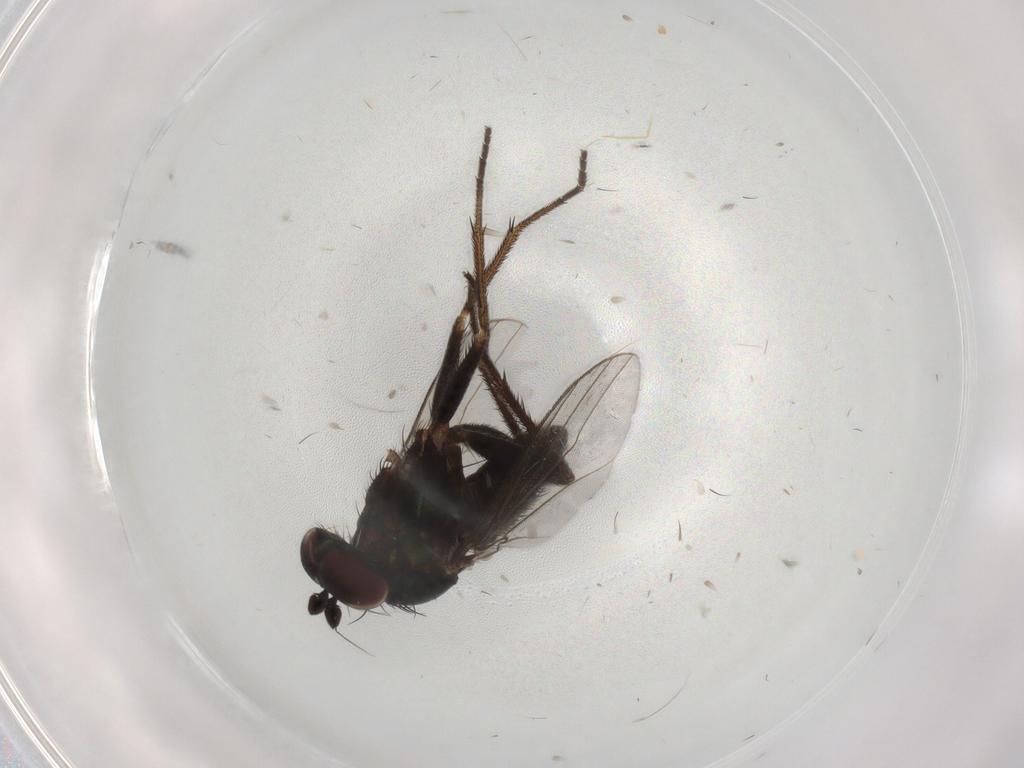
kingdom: Animalia
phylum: Arthropoda
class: Insecta
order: Diptera
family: Dolichopodidae
